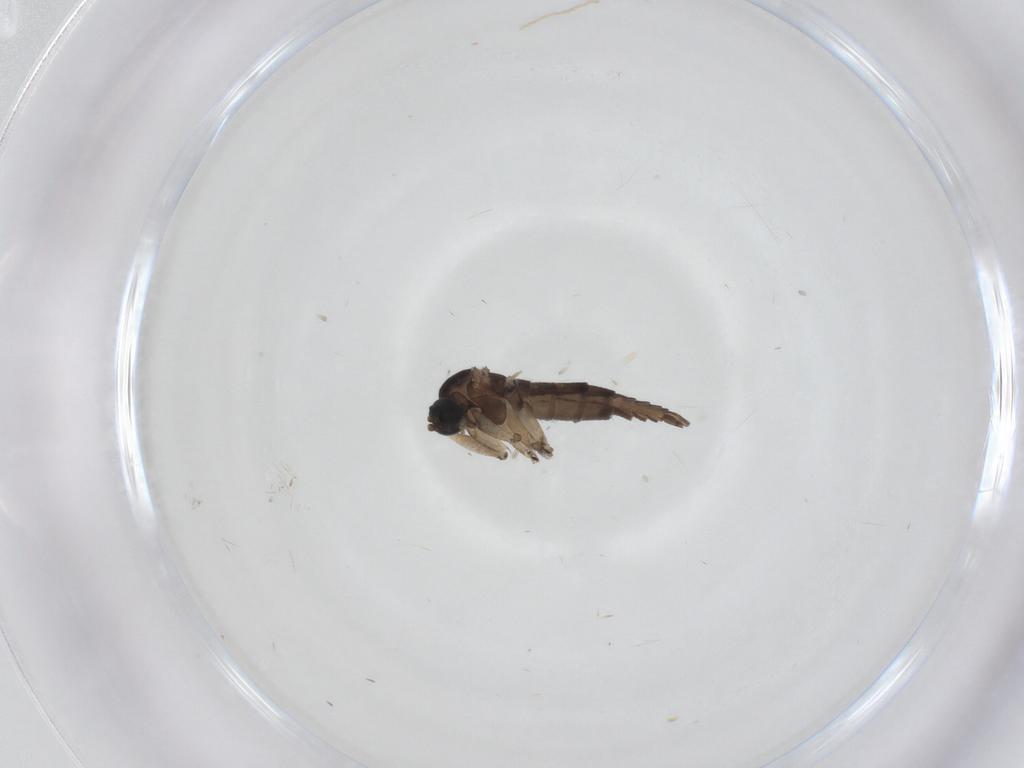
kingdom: Animalia
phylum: Arthropoda
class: Insecta
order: Diptera
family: Sciaridae
